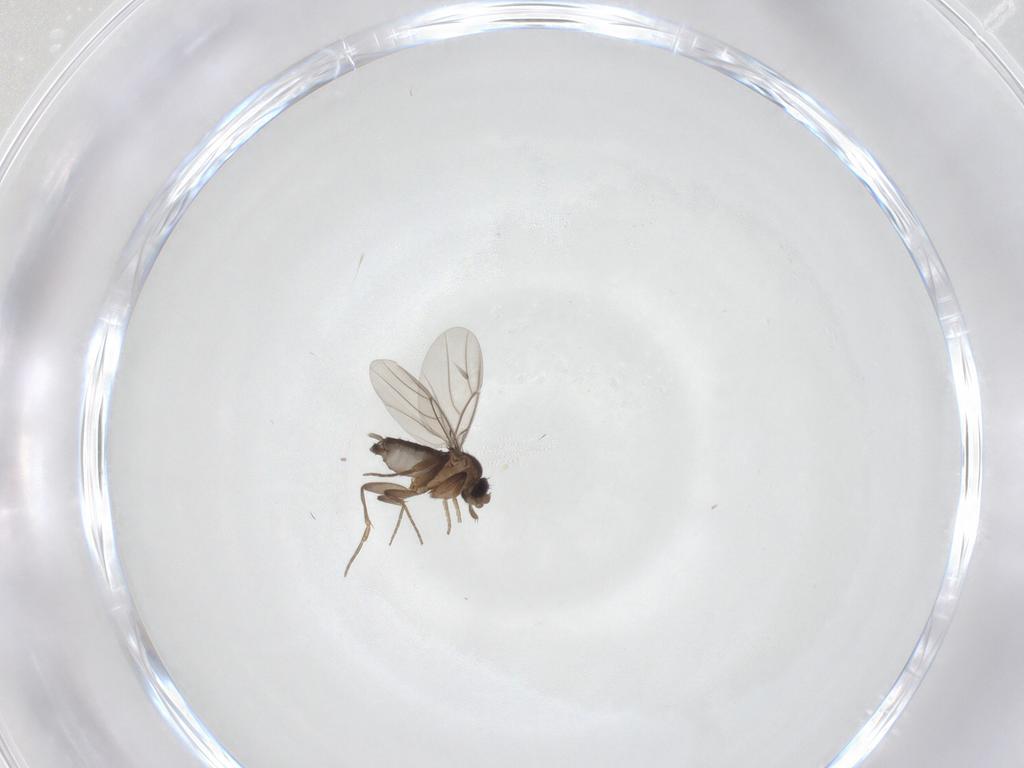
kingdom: Animalia
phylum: Arthropoda
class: Insecta
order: Diptera
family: Phoridae
